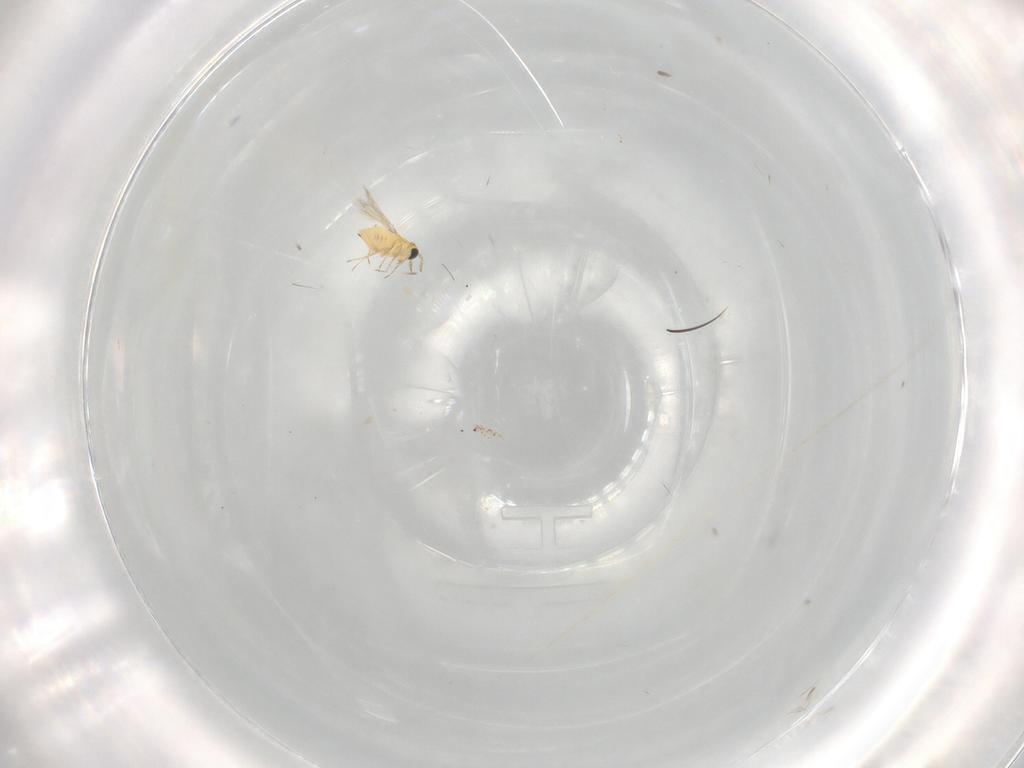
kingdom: Animalia
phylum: Arthropoda
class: Insecta
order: Hymenoptera
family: Trichogrammatidae
